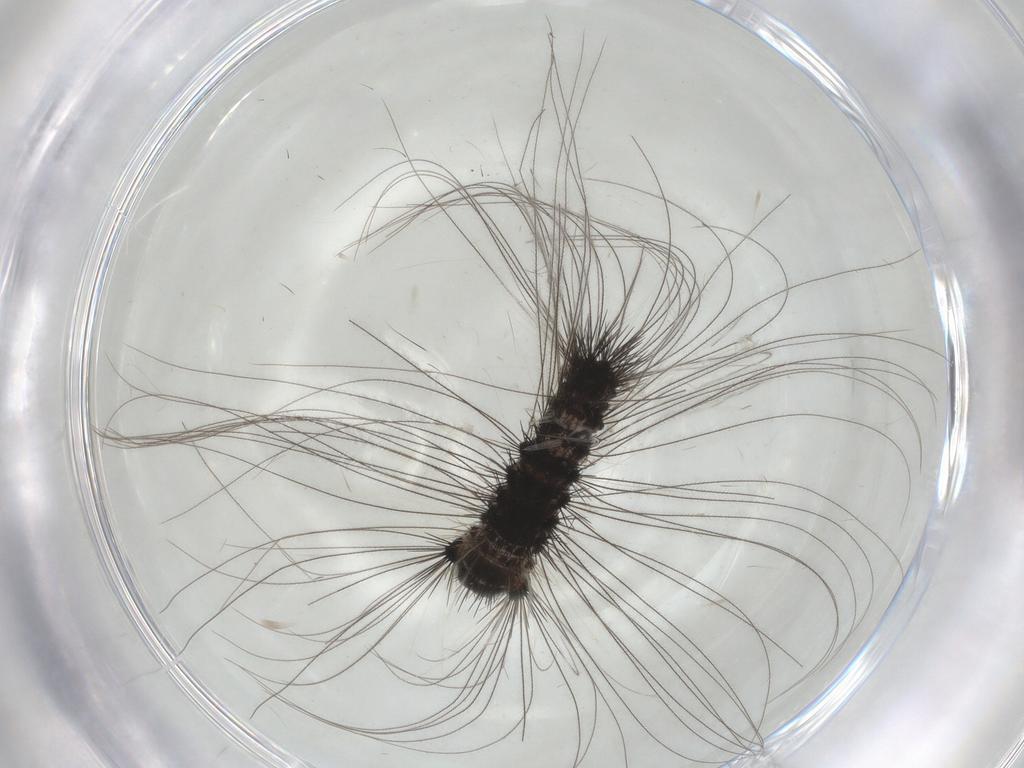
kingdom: Animalia
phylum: Arthropoda
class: Insecta
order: Lepidoptera
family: Erebidae
